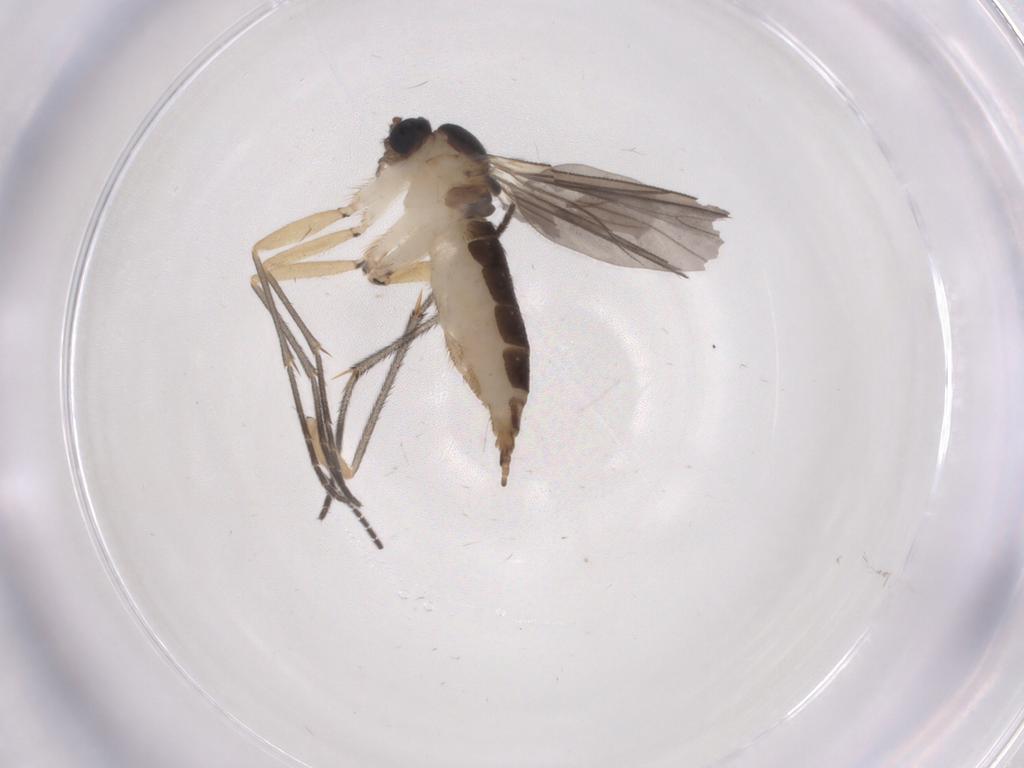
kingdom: Animalia
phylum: Arthropoda
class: Insecta
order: Diptera
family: Sciaridae
